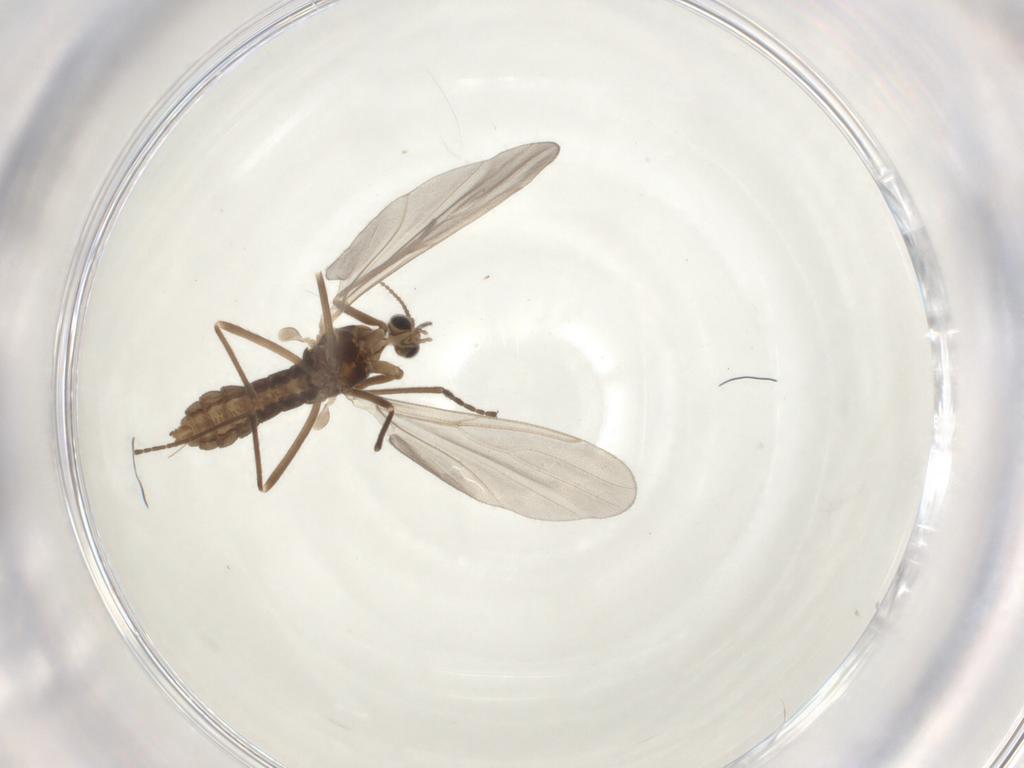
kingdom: Animalia
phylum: Arthropoda
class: Insecta
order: Diptera
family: Cecidomyiidae
